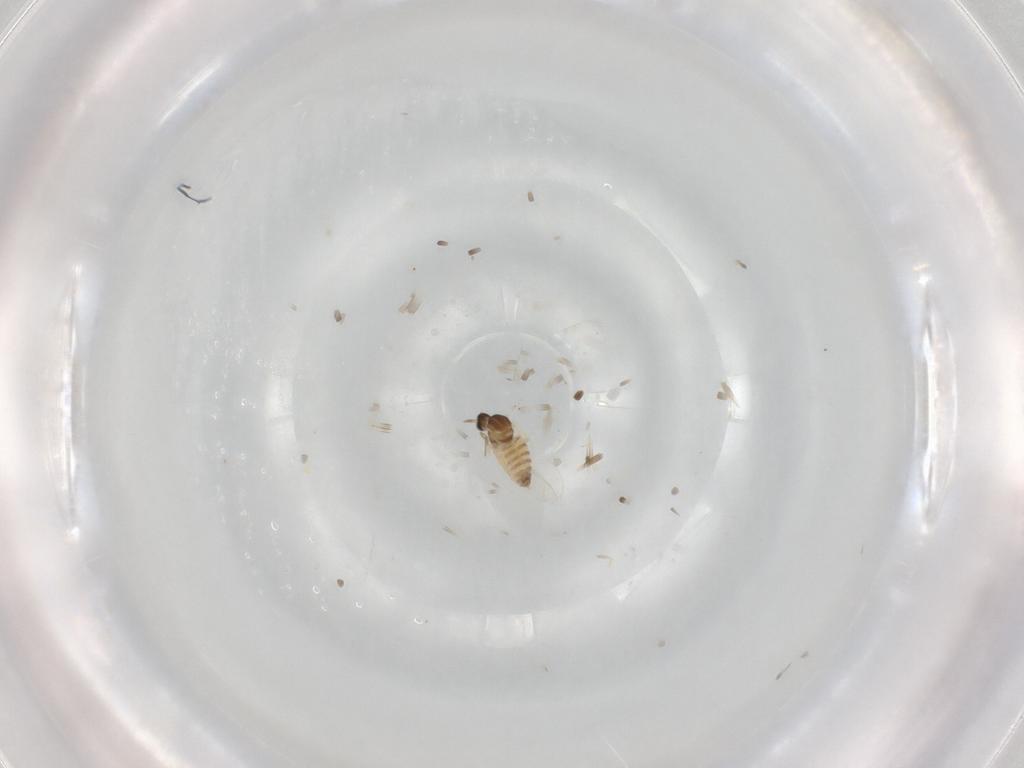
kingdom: Animalia
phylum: Arthropoda
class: Insecta
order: Diptera
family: Cecidomyiidae
